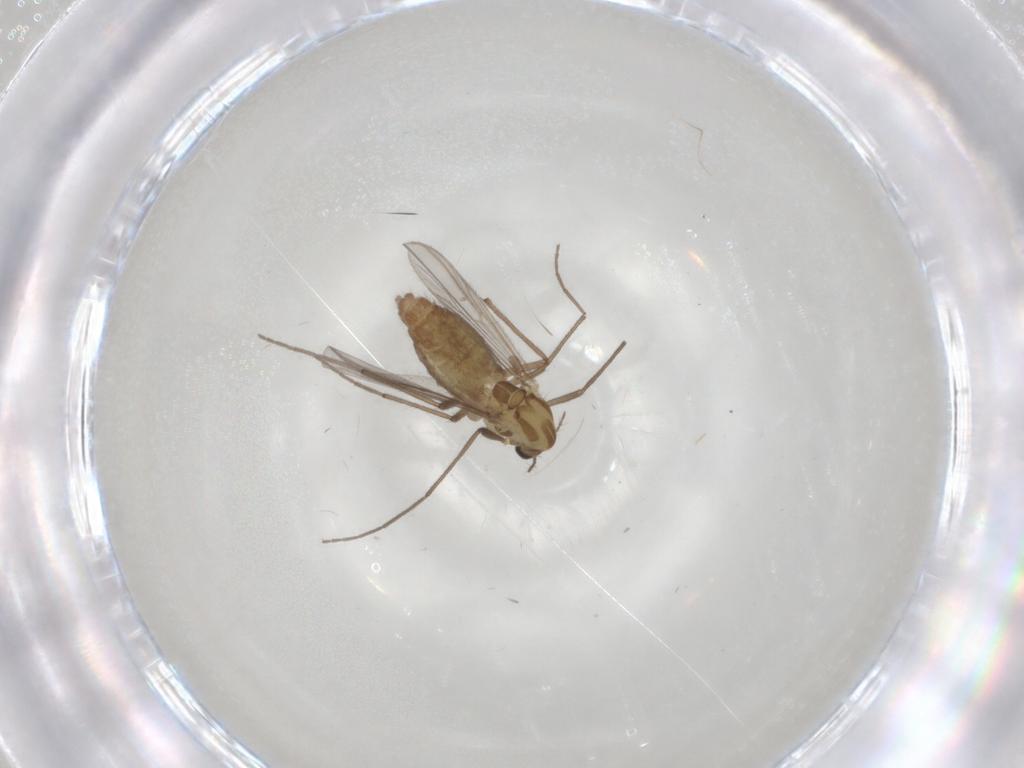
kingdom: Animalia
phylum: Arthropoda
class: Insecta
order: Diptera
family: Chironomidae
